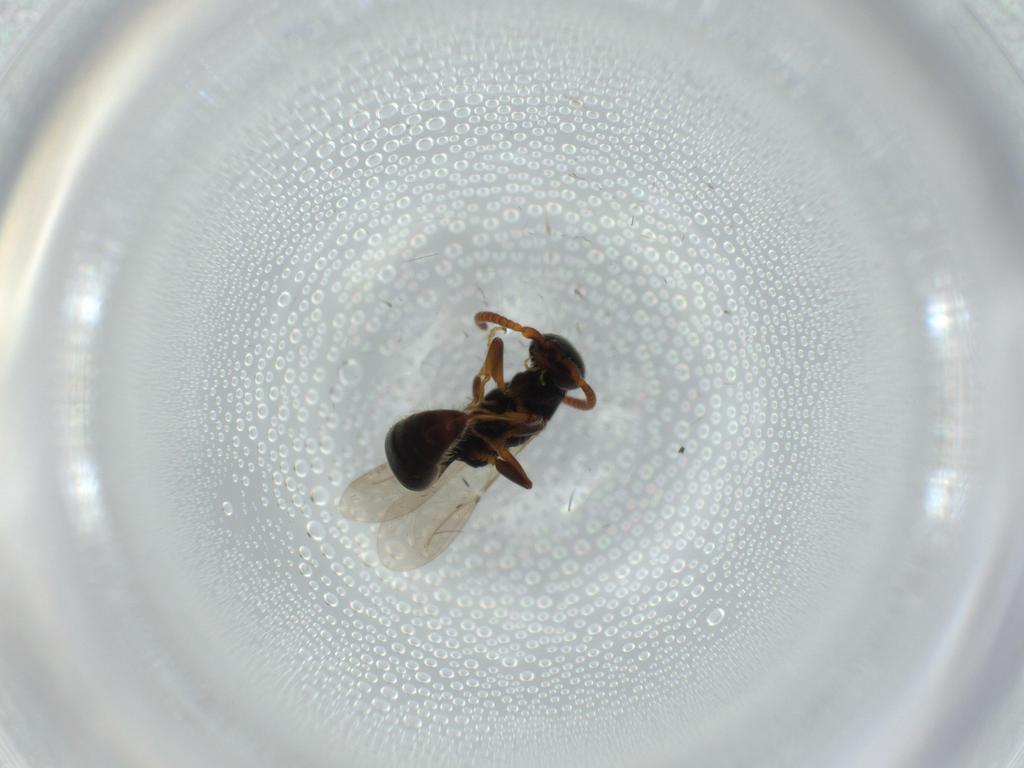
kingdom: Animalia
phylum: Arthropoda
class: Insecta
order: Hymenoptera
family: Bethylidae
